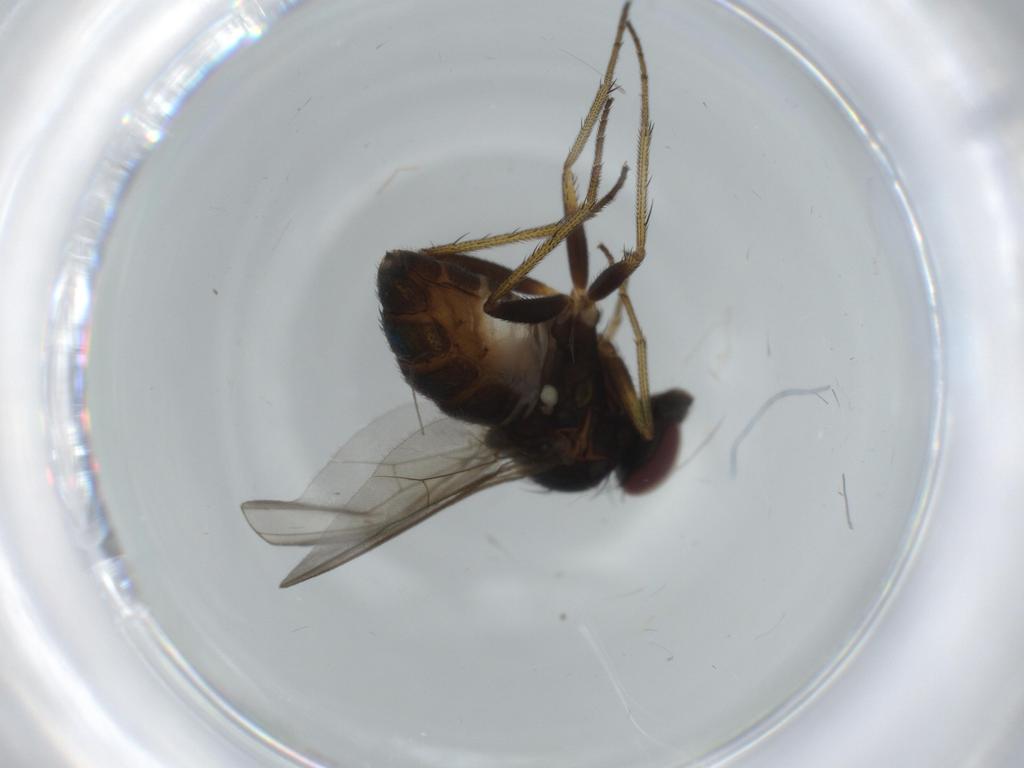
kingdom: Animalia
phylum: Arthropoda
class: Insecta
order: Diptera
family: Dolichopodidae
